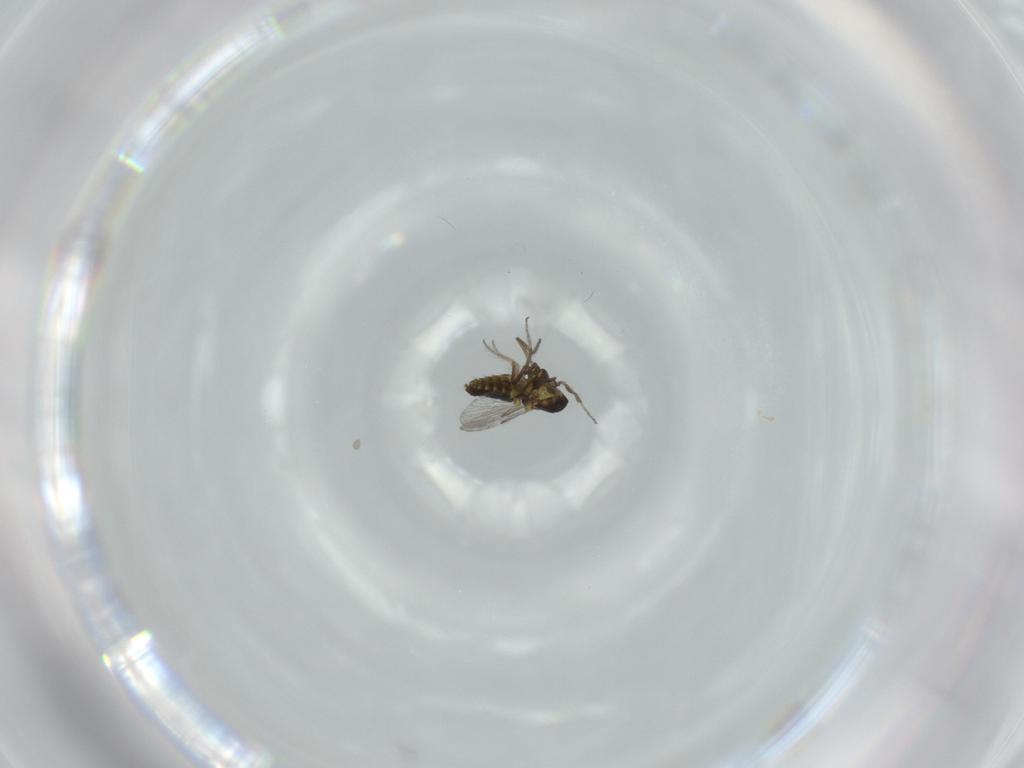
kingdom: Animalia
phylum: Arthropoda
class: Insecta
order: Diptera
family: Ceratopogonidae
